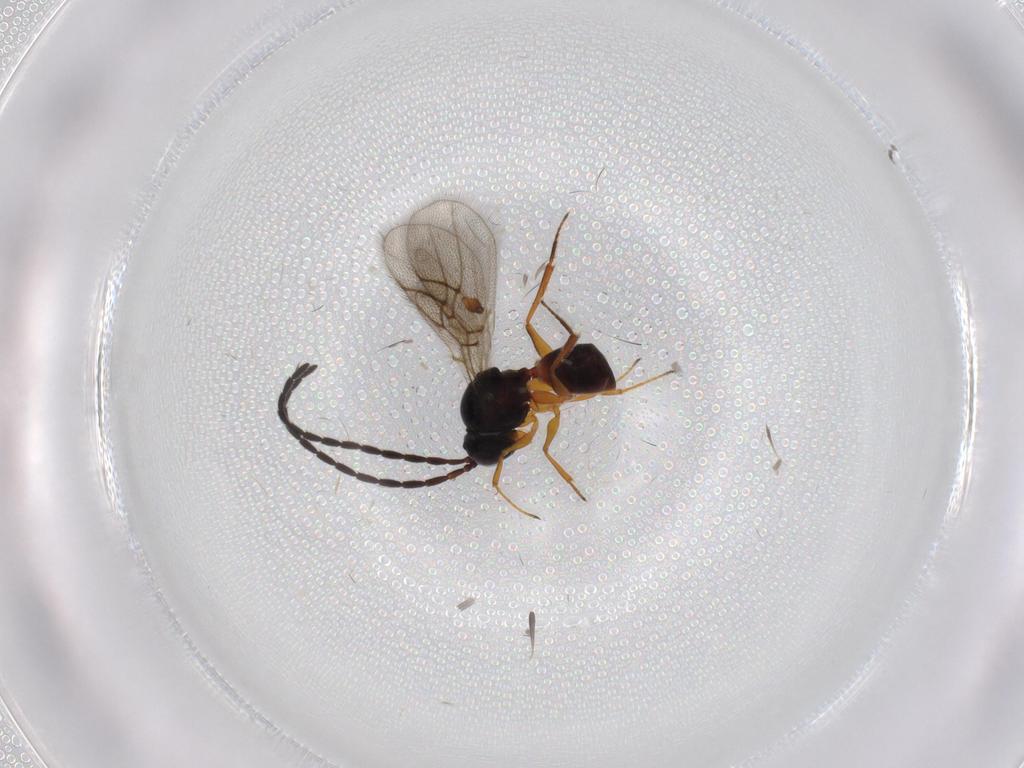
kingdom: Animalia
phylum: Arthropoda
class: Insecta
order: Hymenoptera
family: Figitidae
